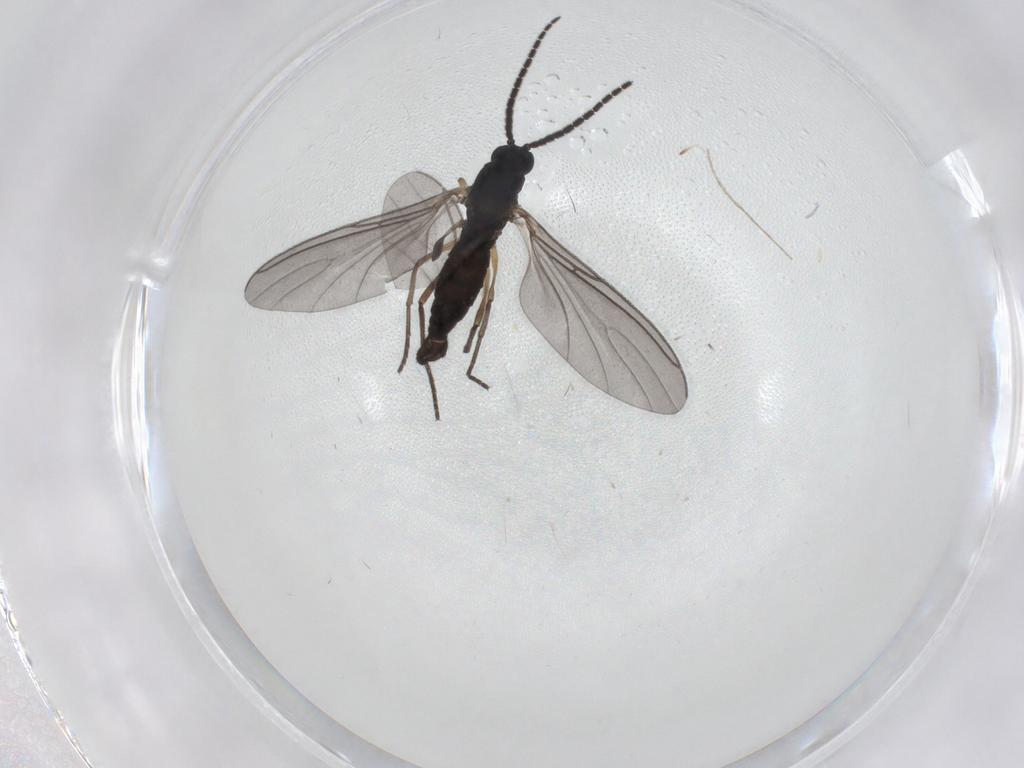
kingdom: Animalia
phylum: Arthropoda
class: Insecta
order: Diptera
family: Chironomidae
